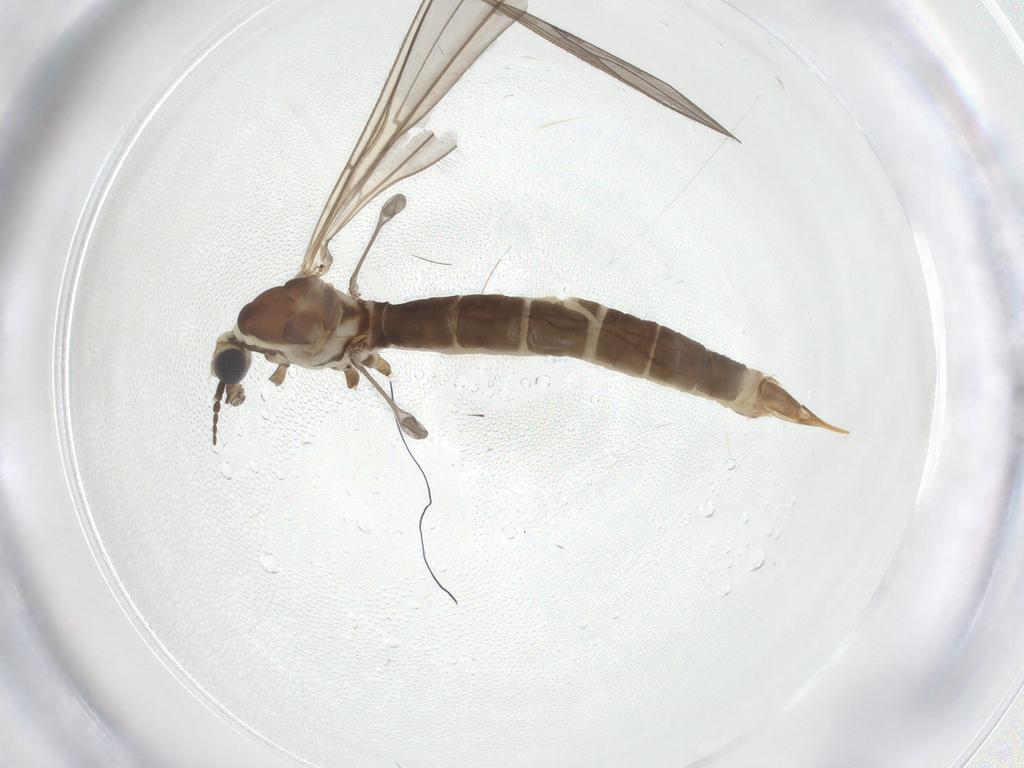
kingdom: Animalia
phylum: Arthropoda
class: Insecta
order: Diptera
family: Limoniidae
